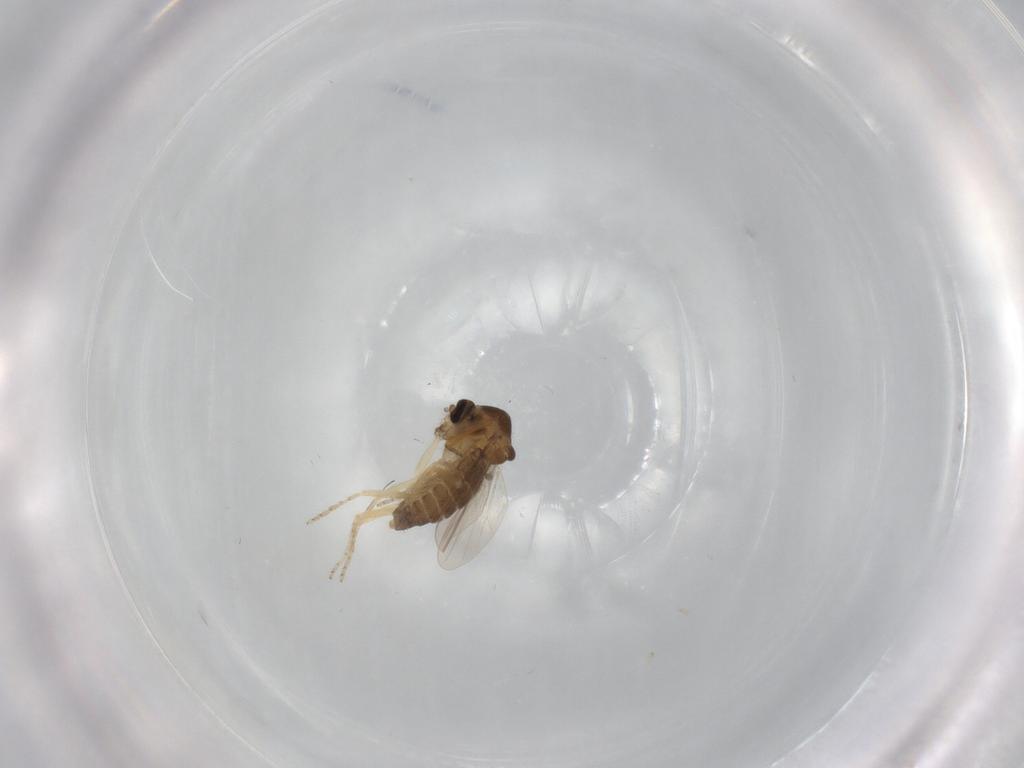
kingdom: Animalia
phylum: Arthropoda
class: Insecta
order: Diptera
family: Ceratopogonidae
